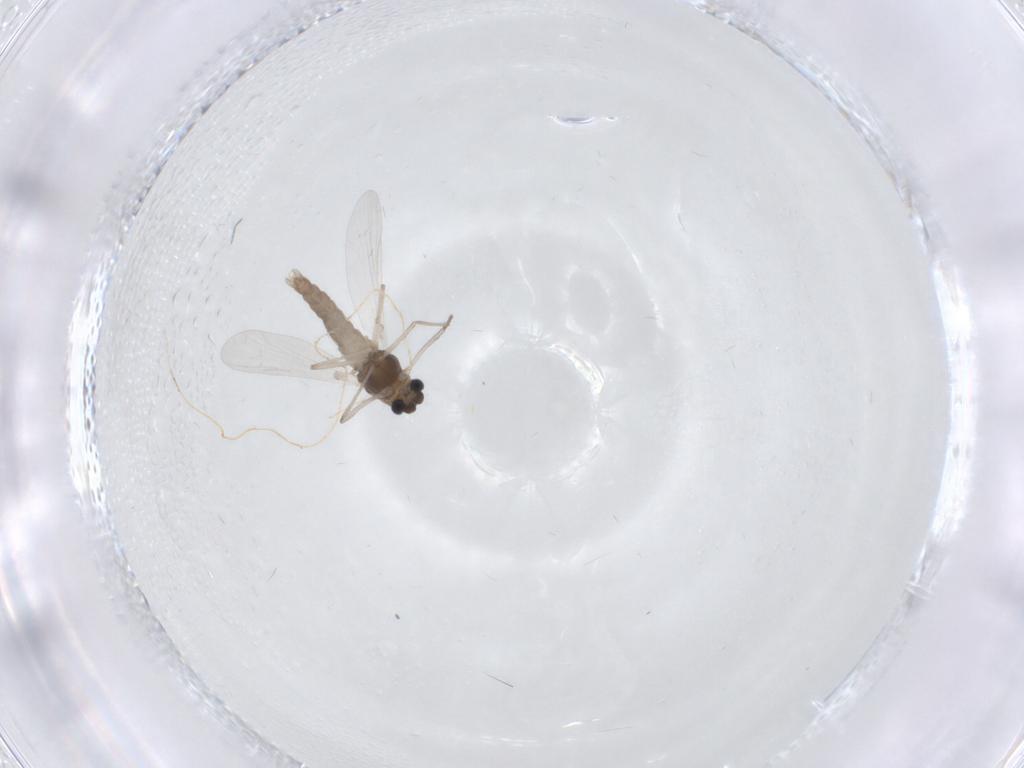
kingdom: Animalia
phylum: Arthropoda
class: Insecta
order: Diptera
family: Chironomidae
